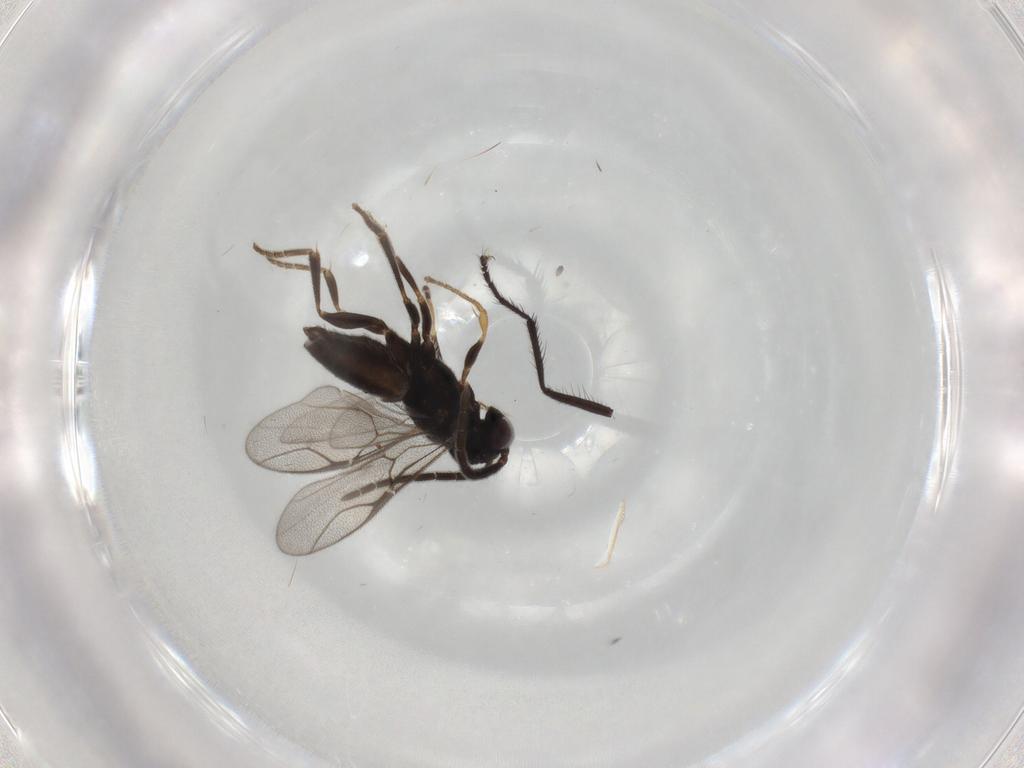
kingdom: Animalia
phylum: Arthropoda
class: Insecta
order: Hymenoptera
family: Dryinidae
